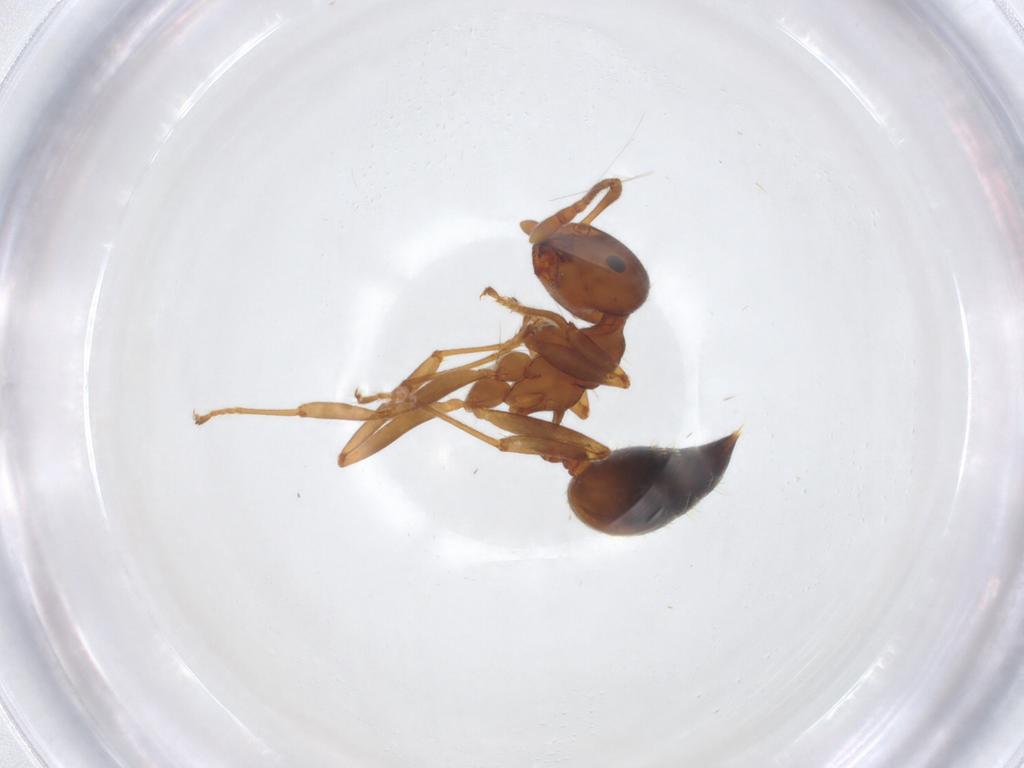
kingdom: Animalia
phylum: Arthropoda
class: Insecta
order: Hymenoptera
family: Formicidae
